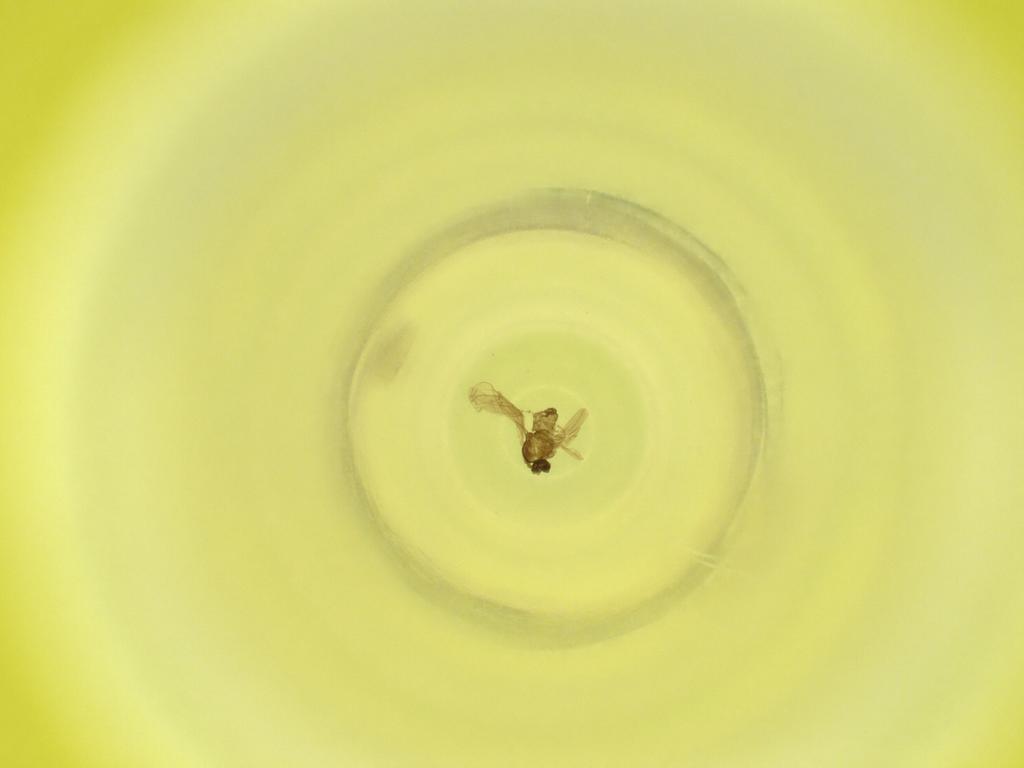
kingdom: Animalia
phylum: Arthropoda
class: Insecta
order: Diptera
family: Cecidomyiidae
